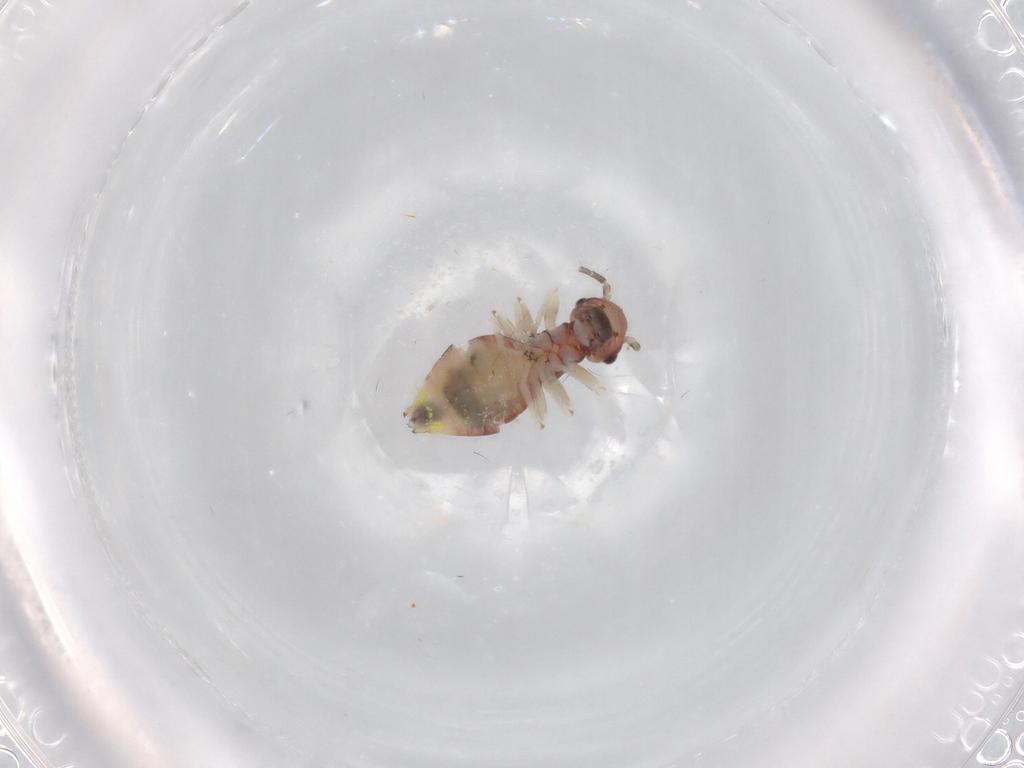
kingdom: Animalia
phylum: Arthropoda
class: Insecta
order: Psocodea
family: Caeciliusidae
